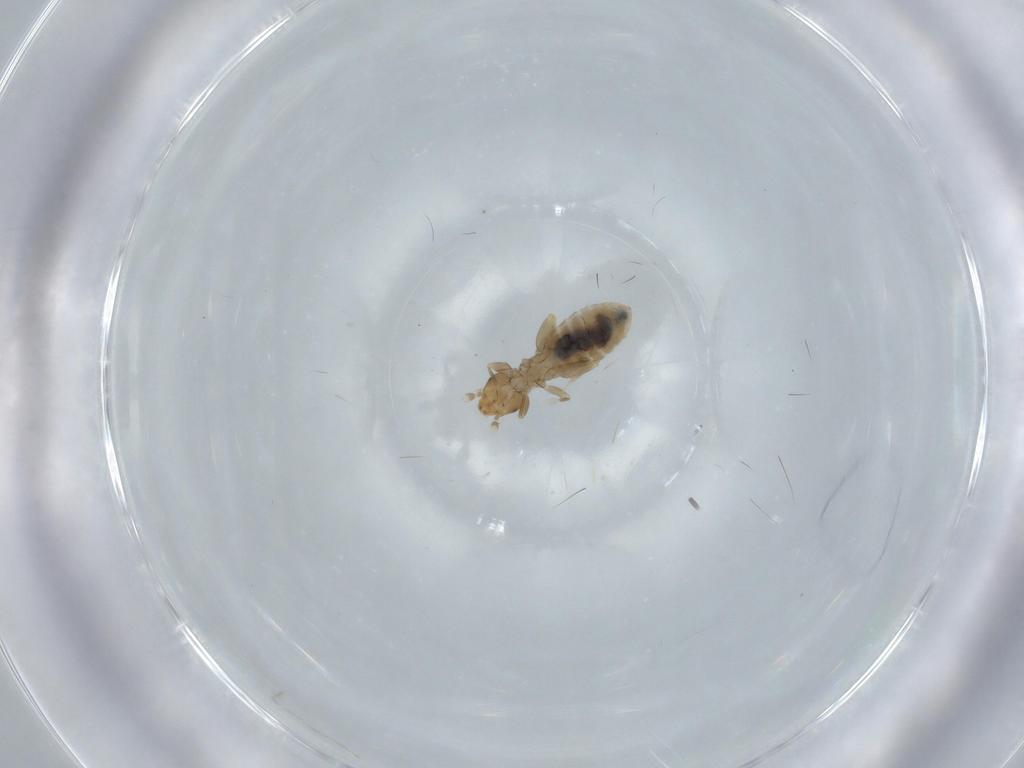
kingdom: Animalia
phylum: Arthropoda
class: Insecta
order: Psocodea
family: Liposcelididae
